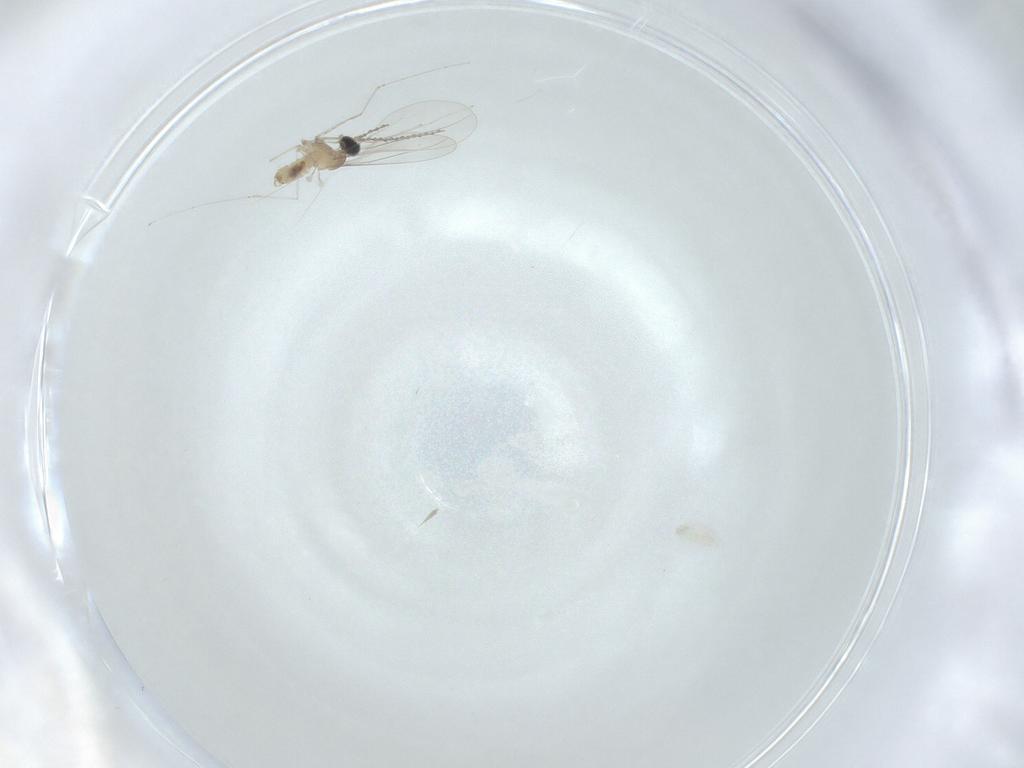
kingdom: Animalia
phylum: Arthropoda
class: Insecta
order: Diptera
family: Cecidomyiidae
